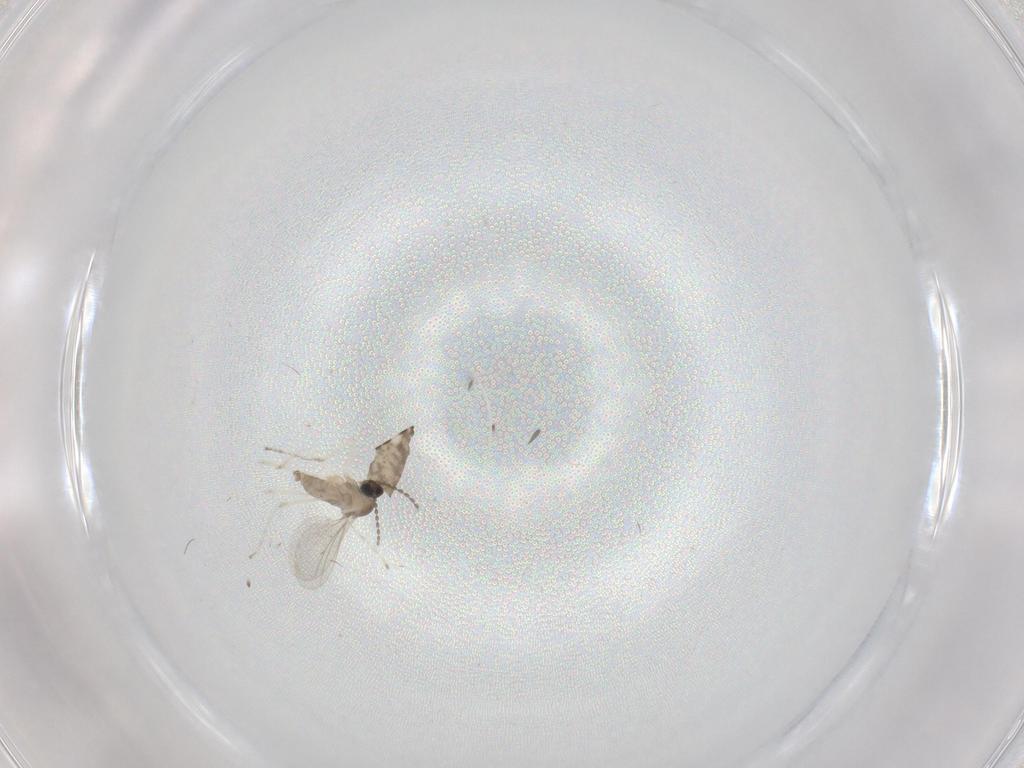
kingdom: Animalia
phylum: Arthropoda
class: Insecta
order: Diptera
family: Cecidomyiidae
